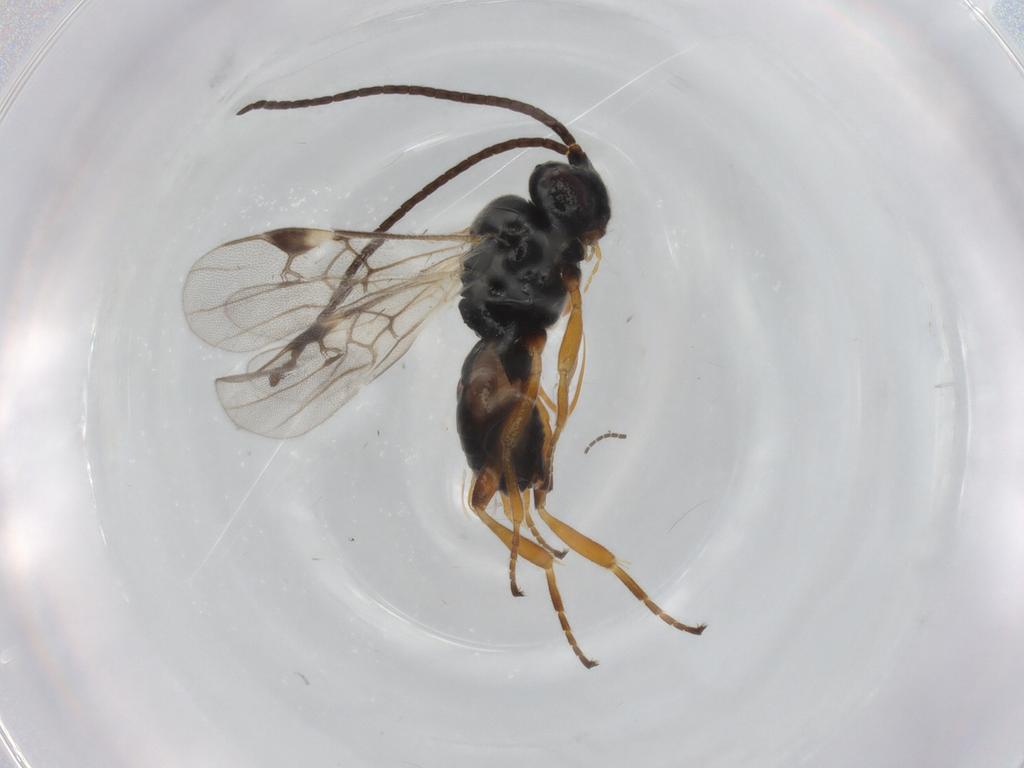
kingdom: Animalia
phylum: Arthropoda
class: Insecta
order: Hymenoptera
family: Braconidae
